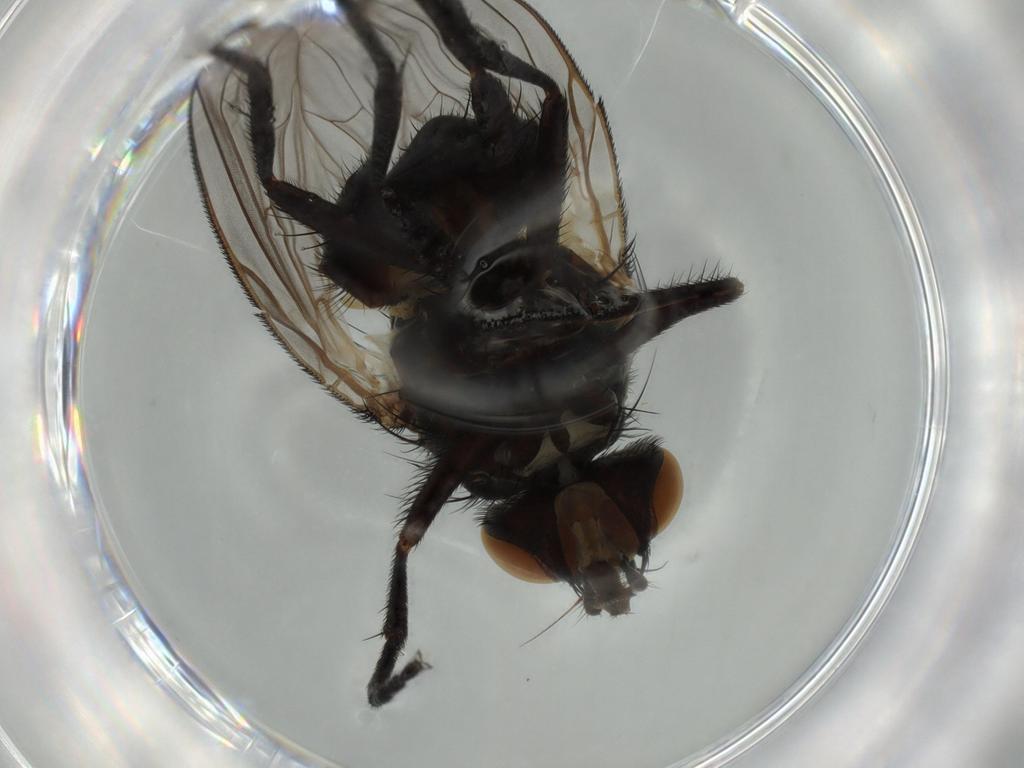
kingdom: Animalia
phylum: Arthropoda
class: Insecta
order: Diptera
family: Fannia
